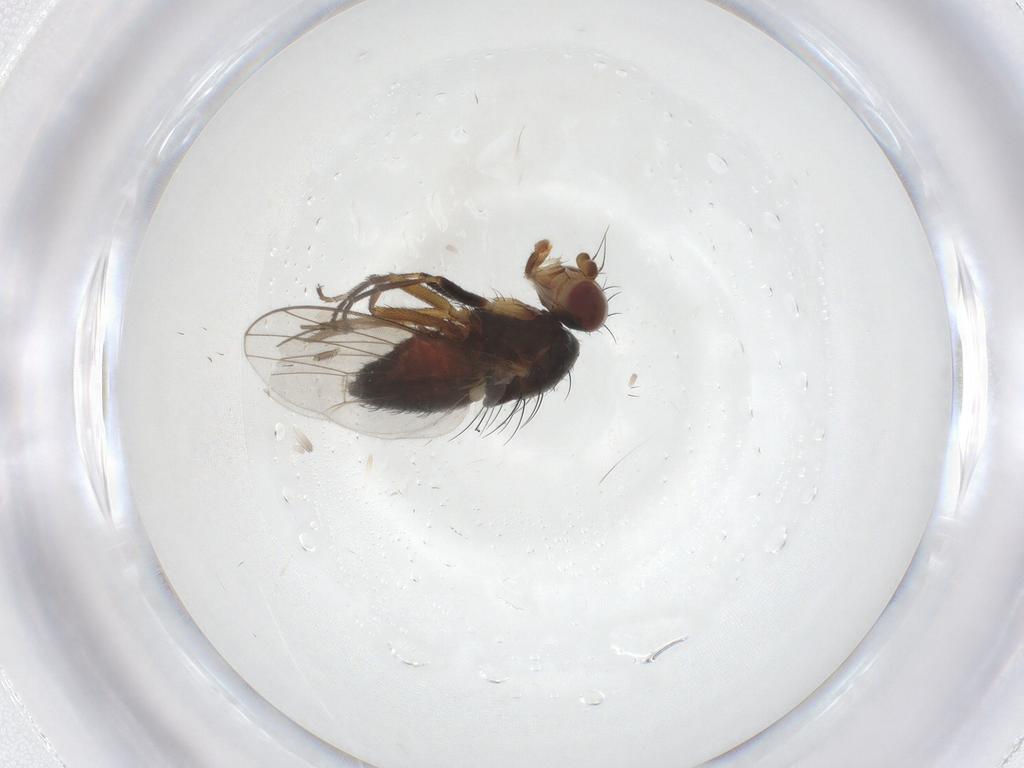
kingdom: Animalia
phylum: Arthropoda
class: Insecta
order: Diptera
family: Heleomyzidae
